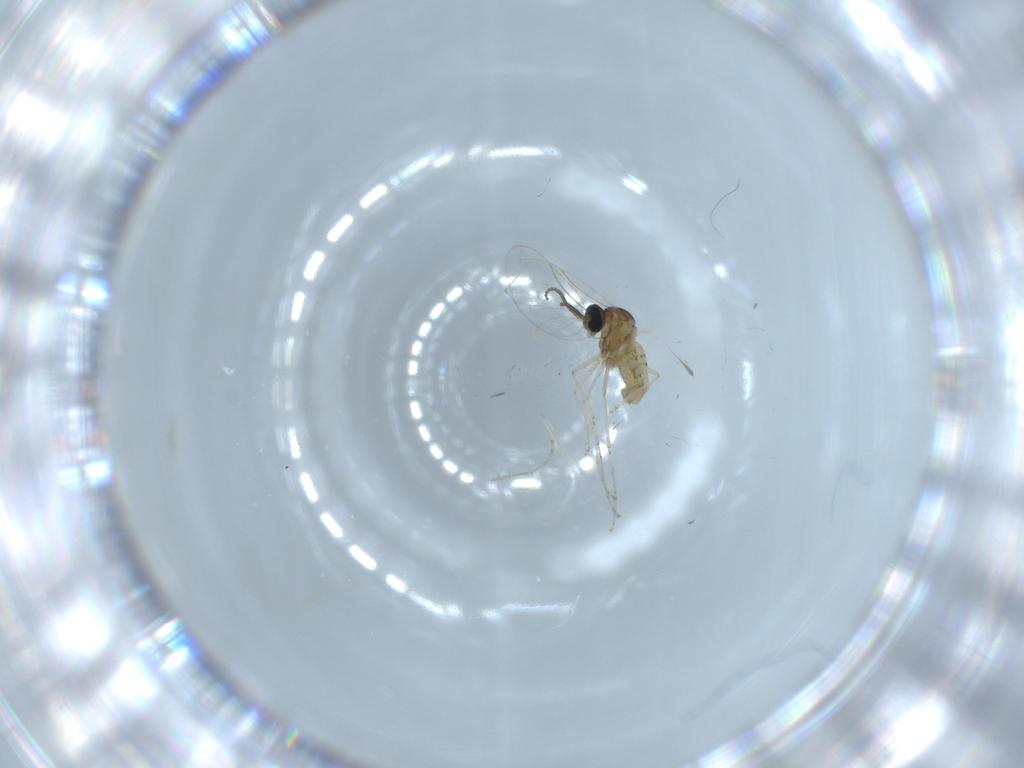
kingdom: Animalia
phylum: Arthropoda
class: Insecta
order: Diptera
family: Cecidomyiidae
